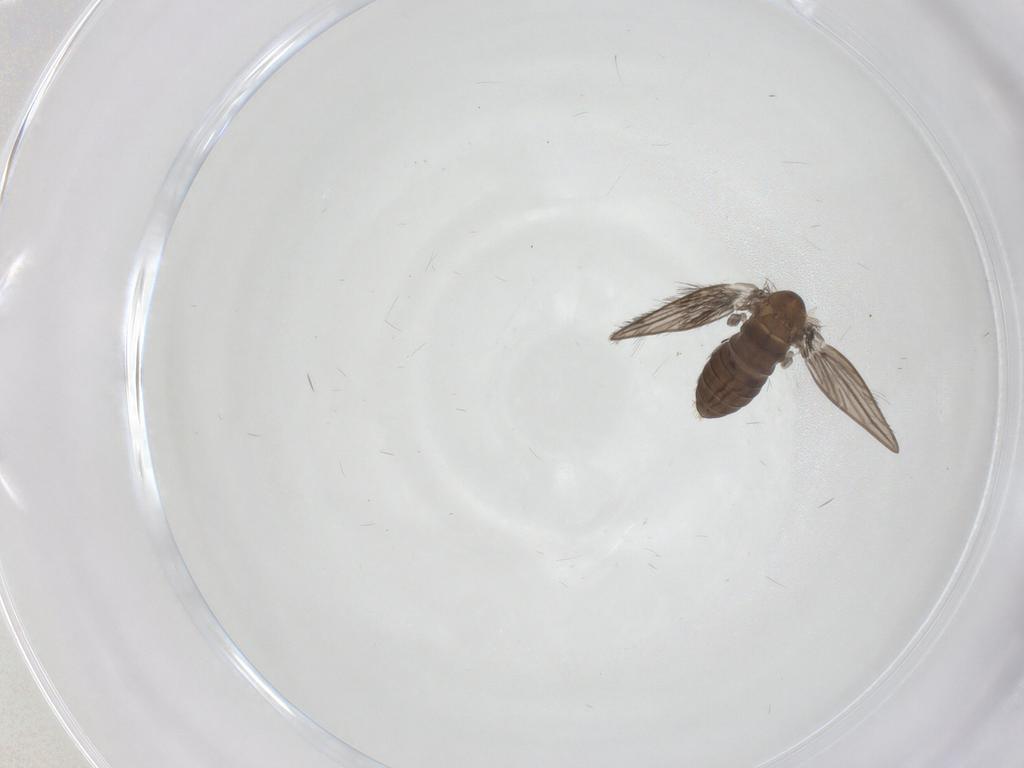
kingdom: Animalia
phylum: Arthropoda
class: Insecta
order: Diptera
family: Psychodidae
